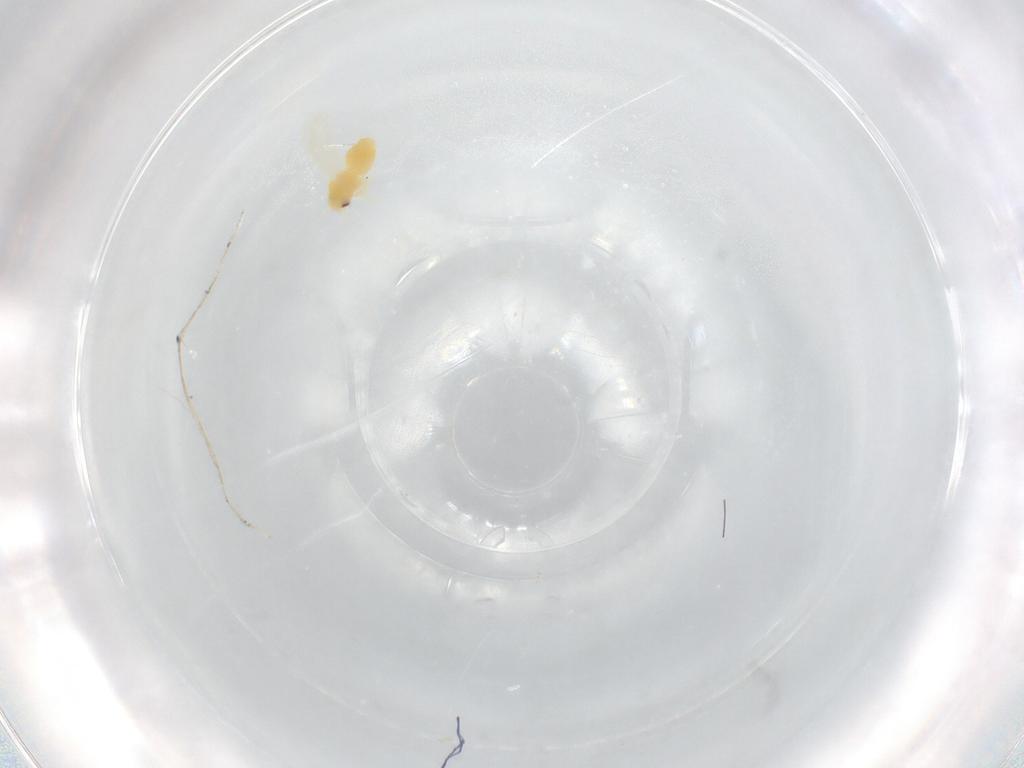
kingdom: Animalia
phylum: Arthropoda
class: Insecta
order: Hemiptera
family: Aleyrodidae
